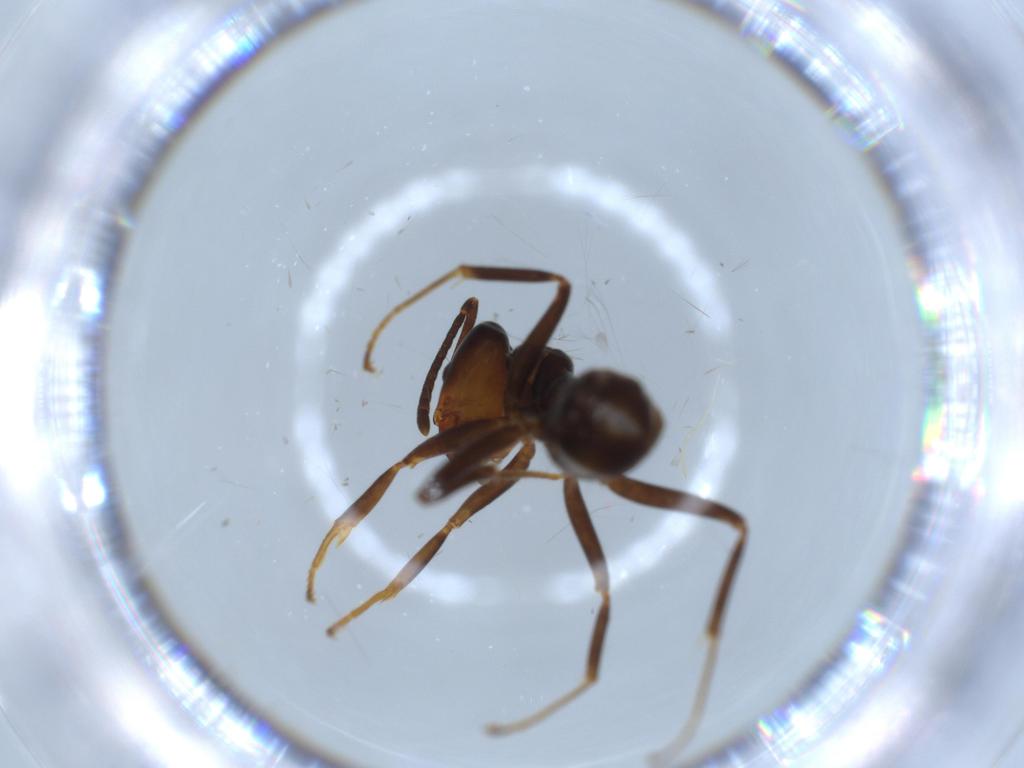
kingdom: Animalia
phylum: Arthropoda
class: Insecta
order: Hymenoptera
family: Formicidae
